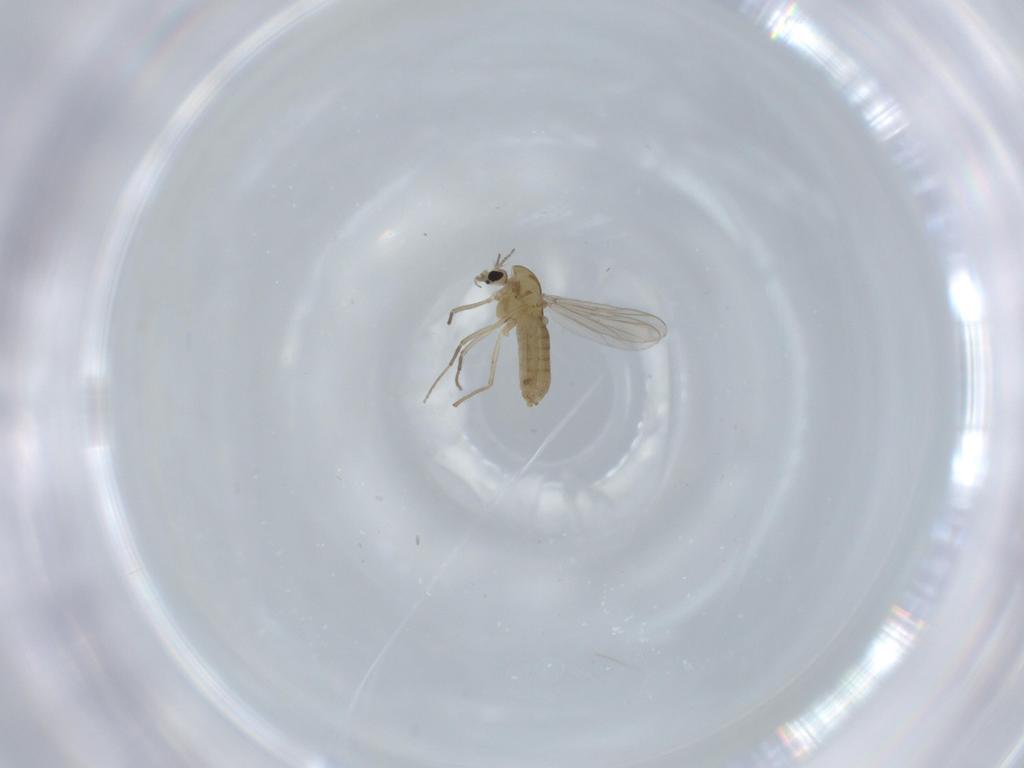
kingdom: Animalia
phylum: Arthropoda
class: Insecta
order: Diptera
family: Chironomidae
